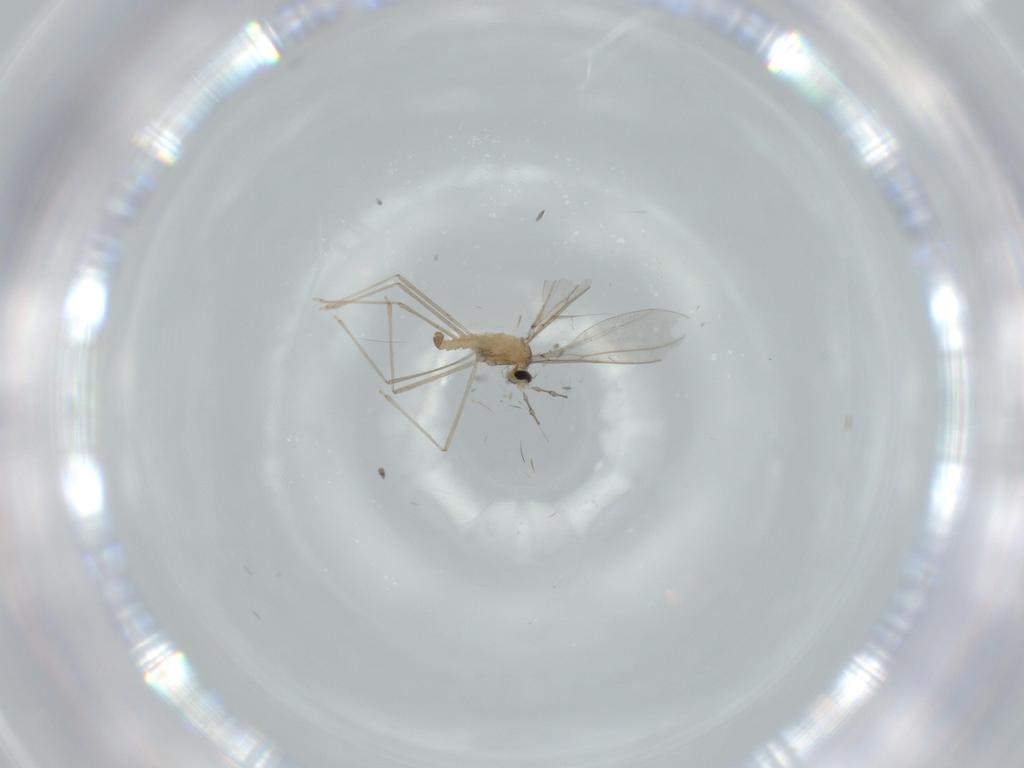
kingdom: Animalia
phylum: Arthropoda
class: Insecta
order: Diptera
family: Cecidomyiidae
